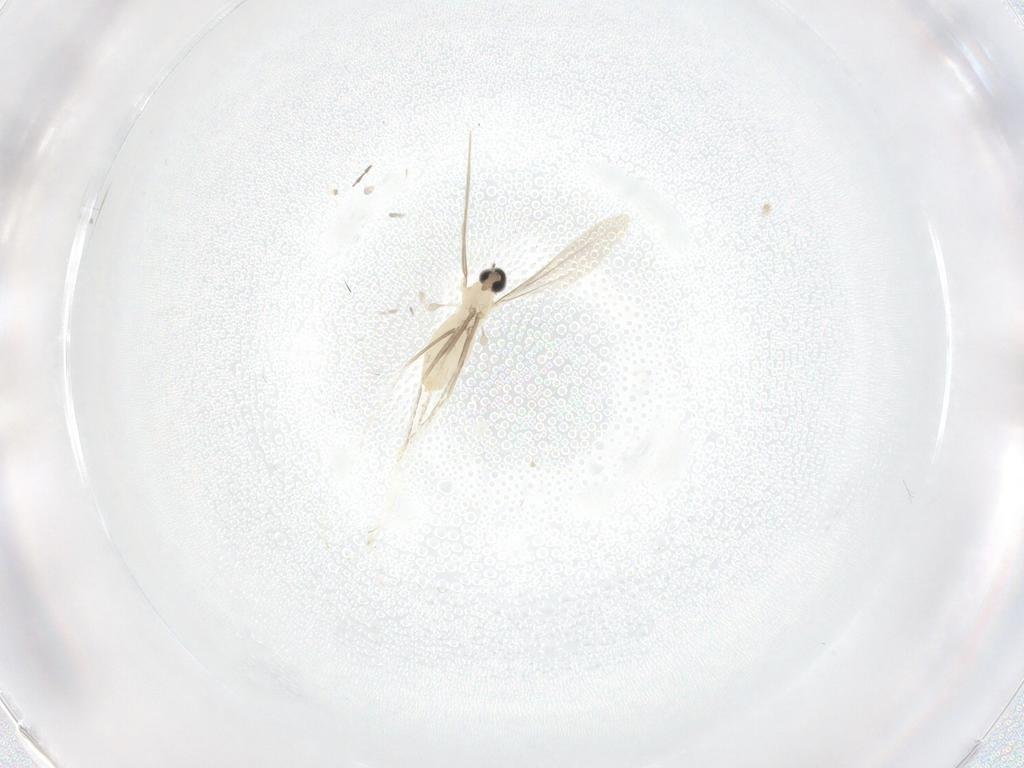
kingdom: Animalia
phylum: Arthropoda
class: Insecta
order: Diptera
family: Cecidomyiidae
